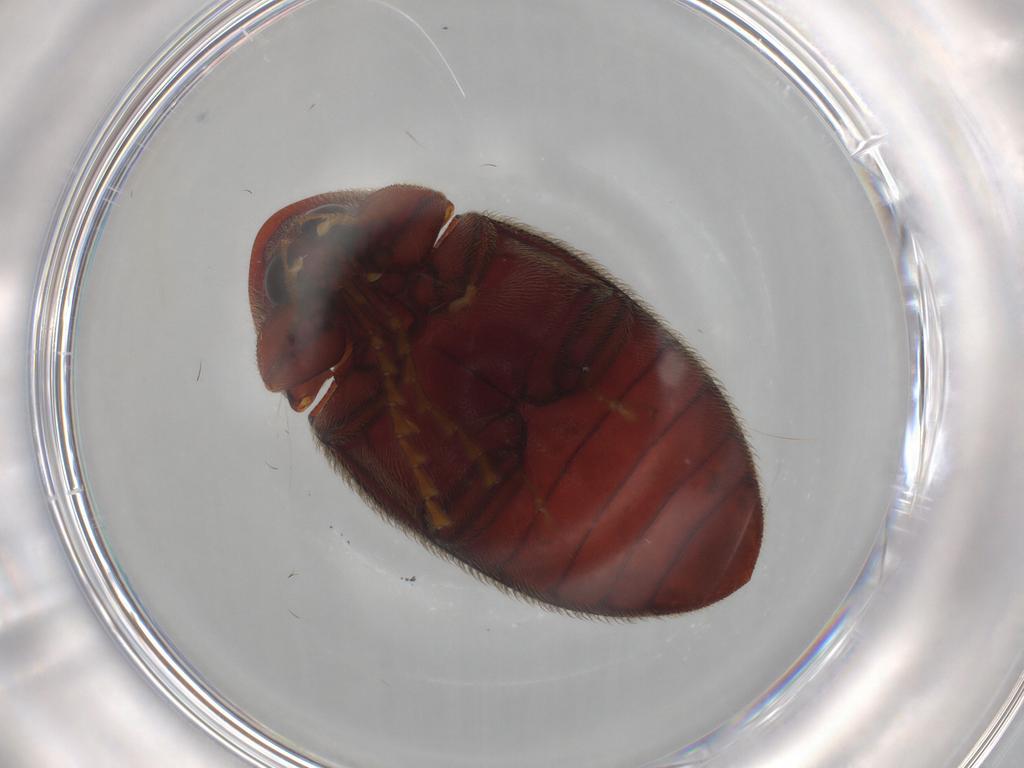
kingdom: Animalia
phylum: Arthropoda
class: Insecta
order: Coleoptera
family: Chelonariidae
